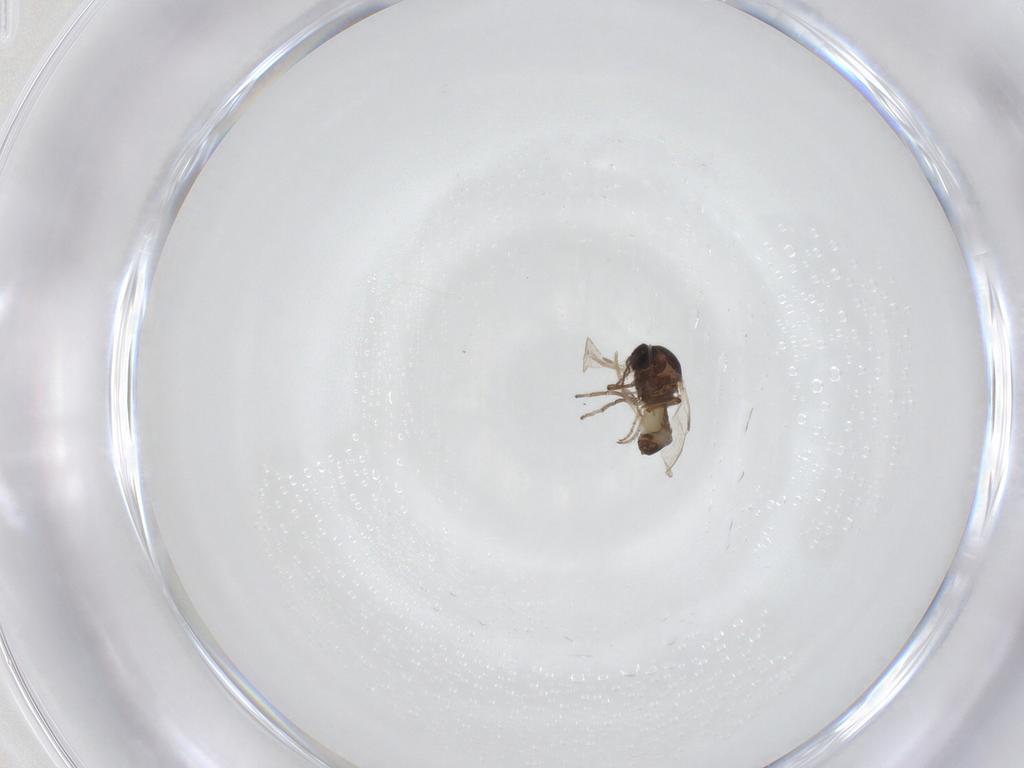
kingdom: Animalia
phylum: Arthropoda
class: Insecta
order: Diptera
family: Ceratopogonidae
